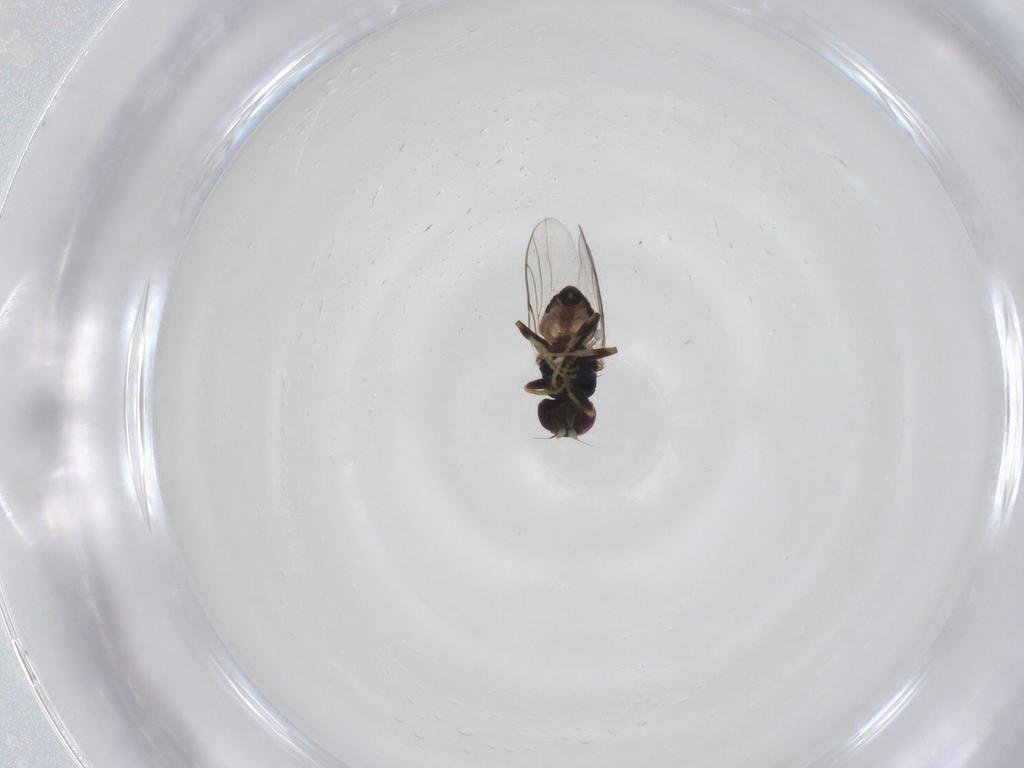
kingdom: Animalia
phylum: Arthropoda
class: Insecta
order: Diptera
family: Chloropidae
